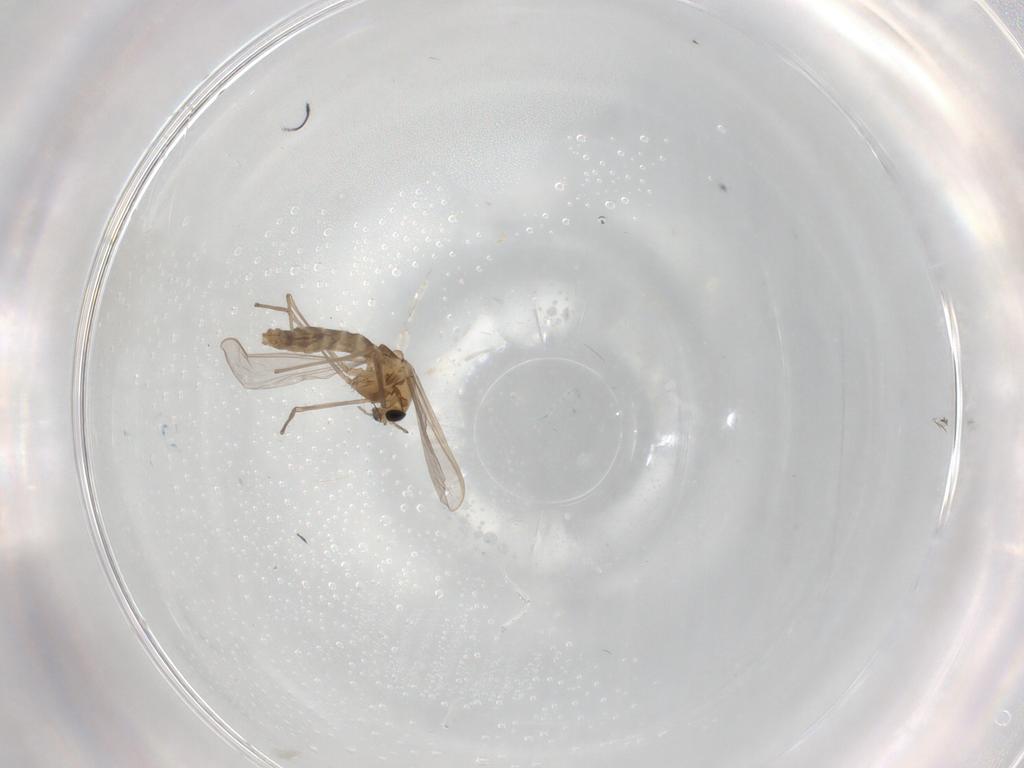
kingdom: Animalia
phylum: Arthropoda
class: Insecta
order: Diptera
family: Chironomidae
